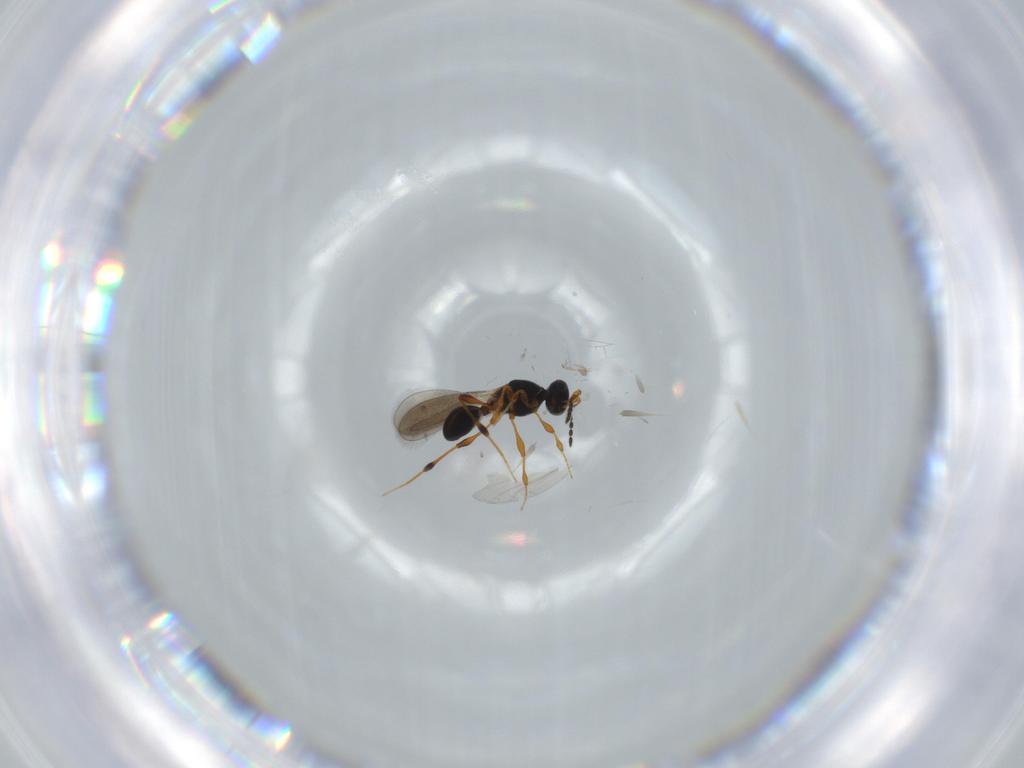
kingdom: Animalia
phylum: Arthropoda
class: Insecta
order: Hymenoptera
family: Platygastridae
